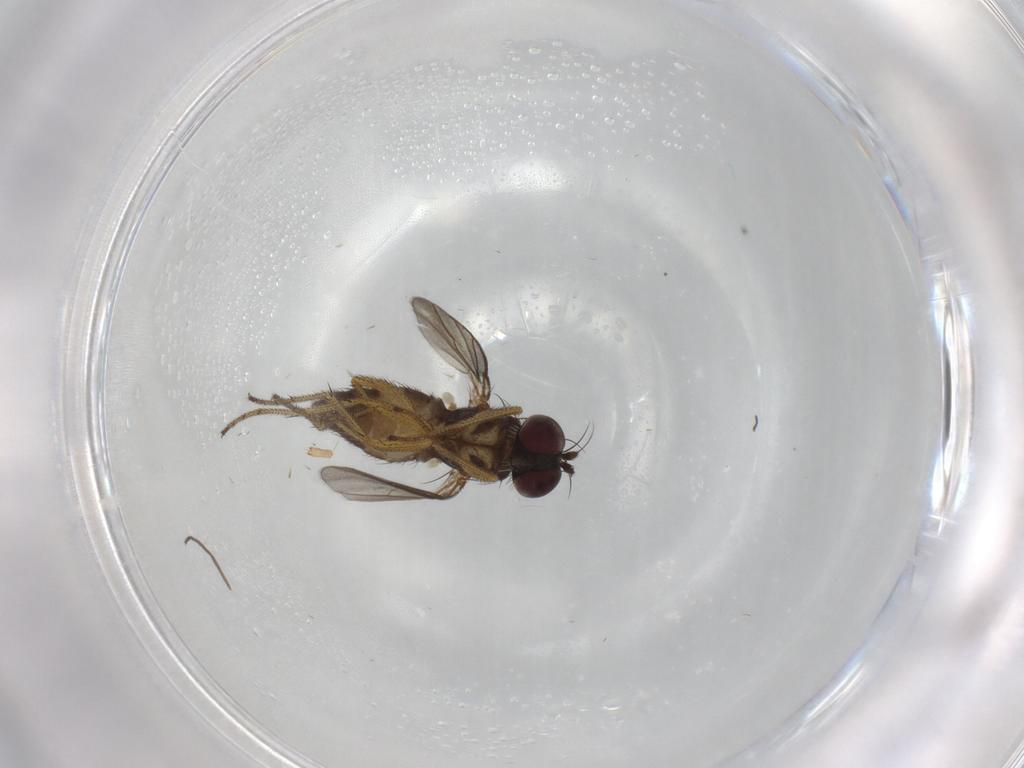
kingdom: Animalia
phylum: Arthropoda
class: Insecta
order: Diptera
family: Dolichopodidae
